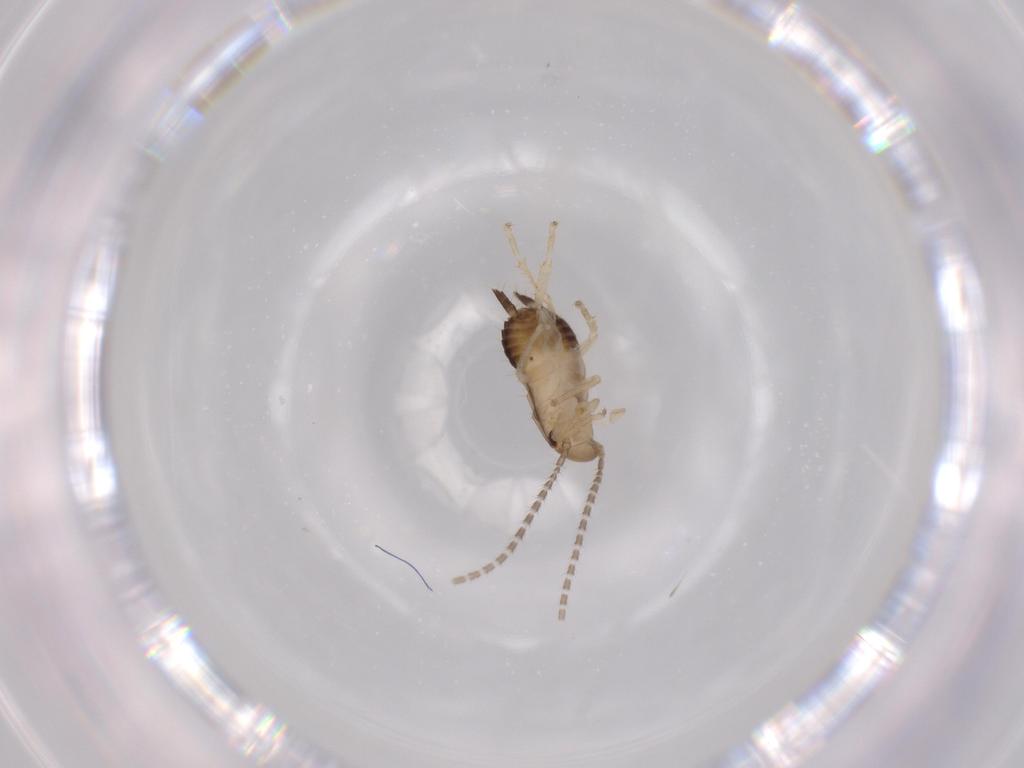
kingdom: Animalia
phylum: Arthropoda
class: Insecta
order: Blattodea
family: Ectobiidae
